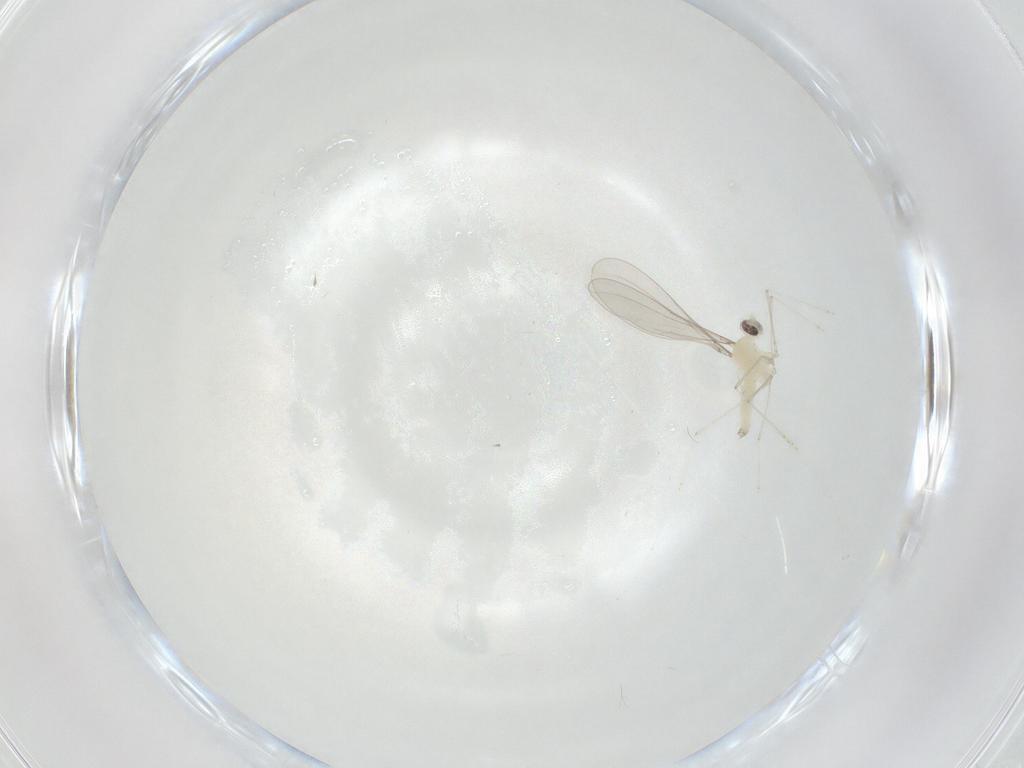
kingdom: Animalia
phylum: Arthropoda
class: Insecta
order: Diptera
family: Cecidomyiidae
